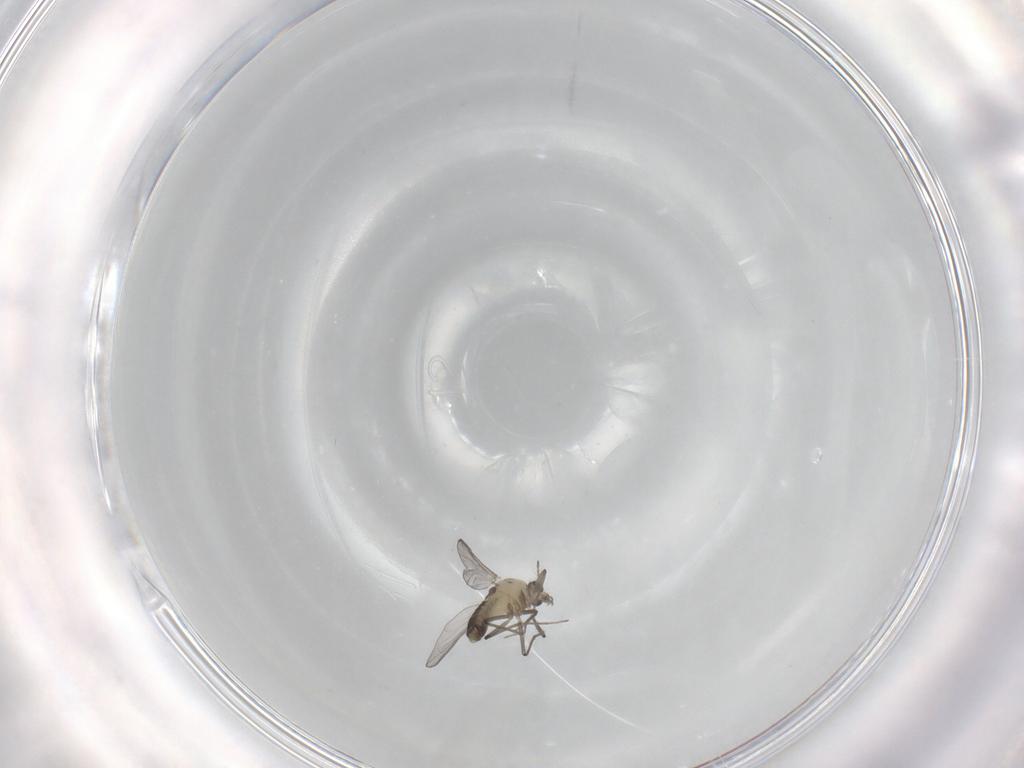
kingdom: Animalia
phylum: Arthropoda
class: Insecta
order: Diptera
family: Chironomidae
